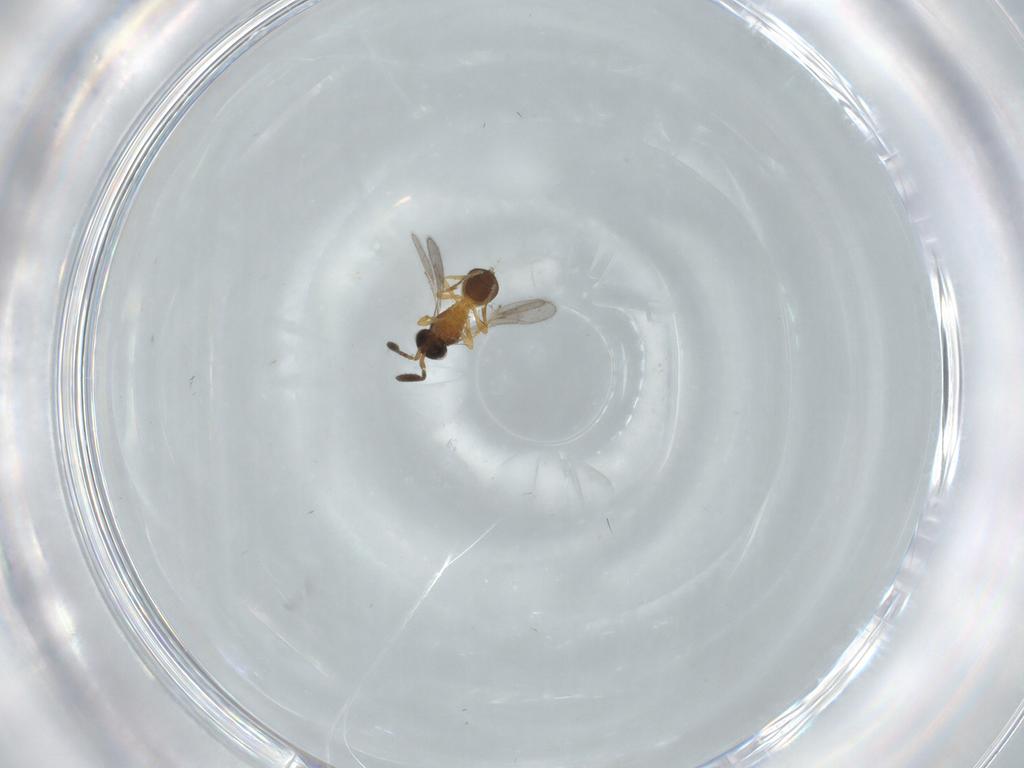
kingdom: Animalia
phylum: Arthropoda
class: Insecta
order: Hymenoptera
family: Scelionidae
